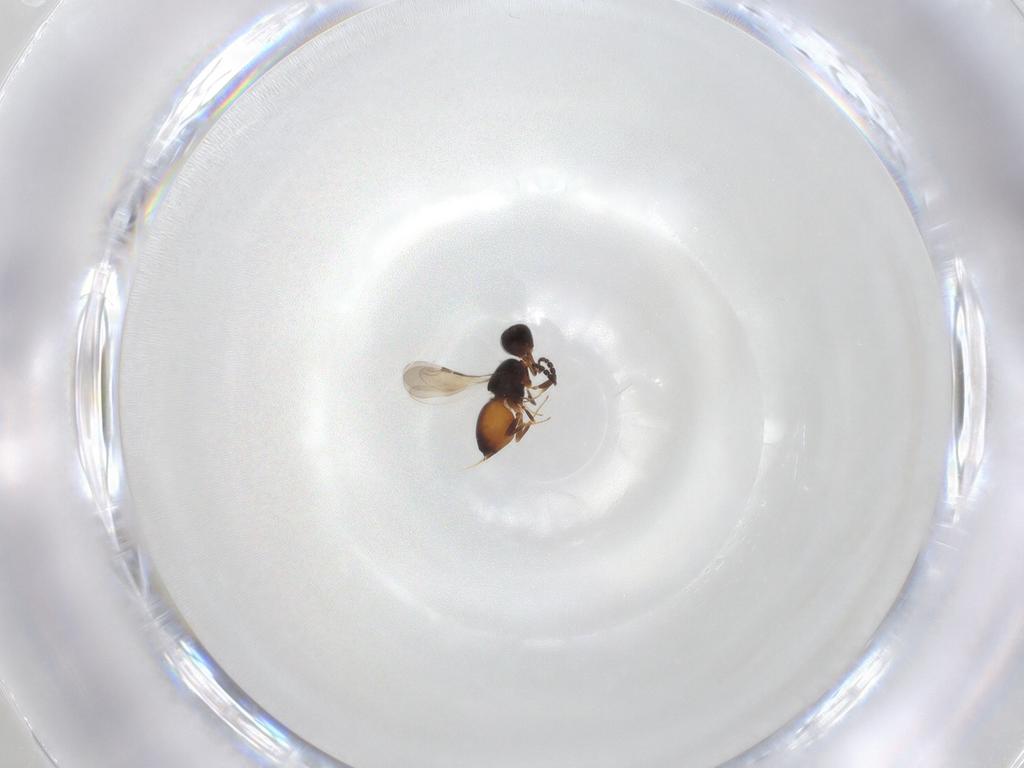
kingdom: Animalia
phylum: Arthropoda
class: Insecta
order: Hymenoptera
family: Ceraphronidae
